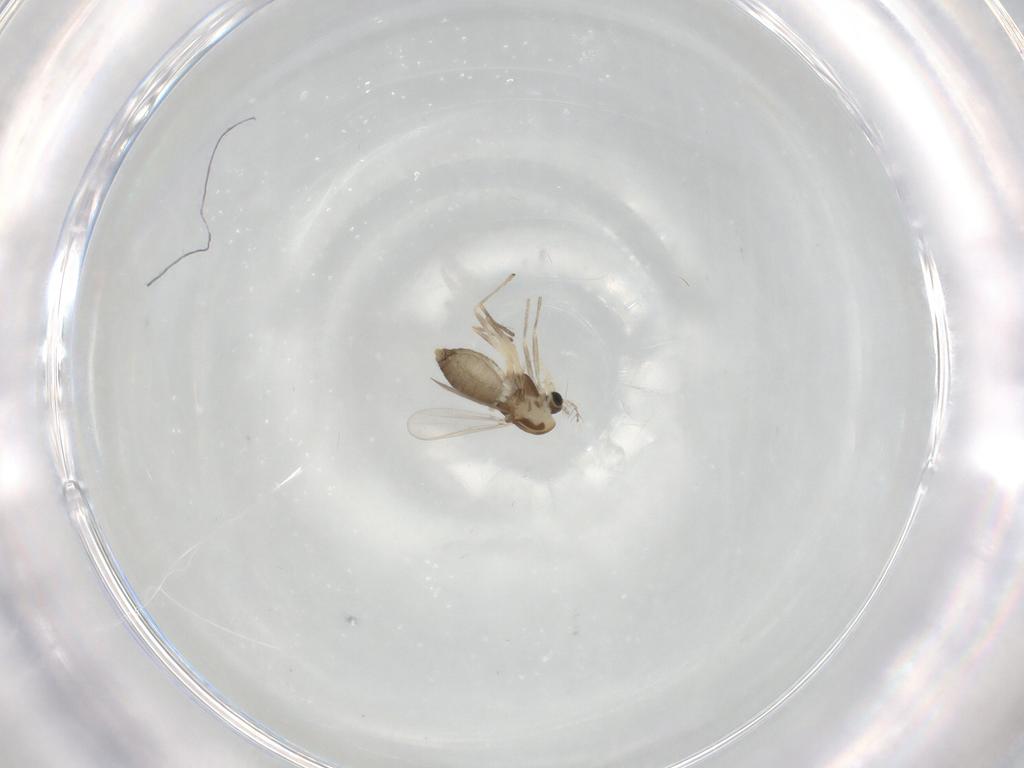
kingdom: Animalia
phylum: Arthropoda
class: Insecta
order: Diptera
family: Chironomidae
